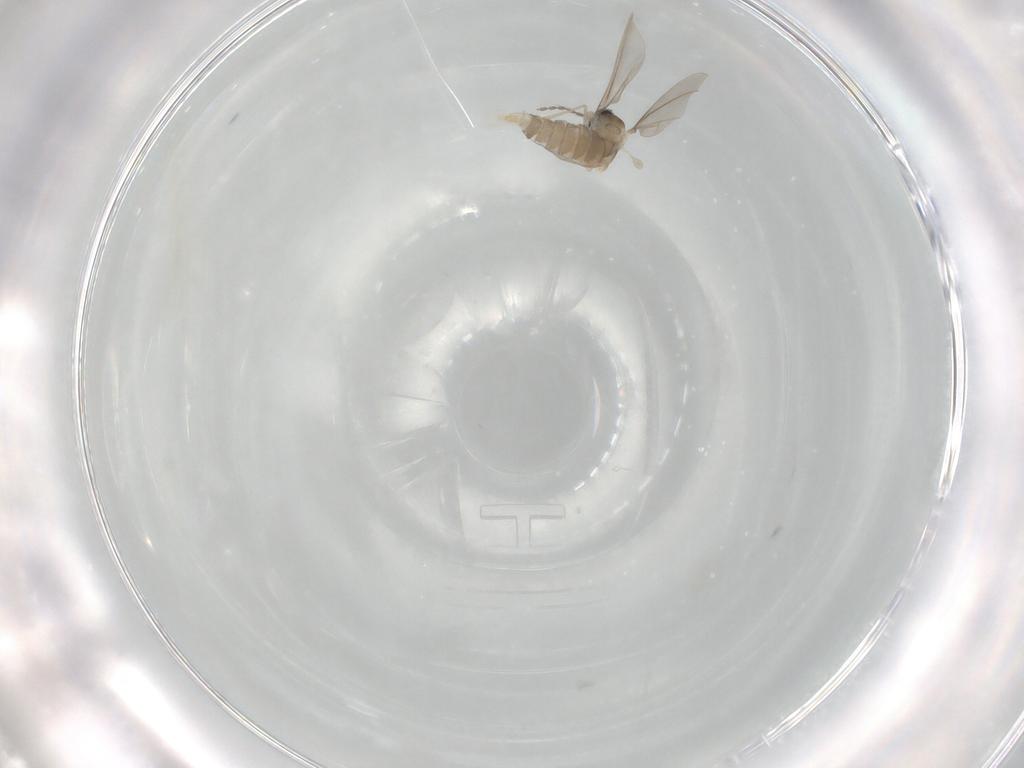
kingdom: Animalia
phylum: Arthropoda
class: Insecta
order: Diptera
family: Cecidomyiidae
